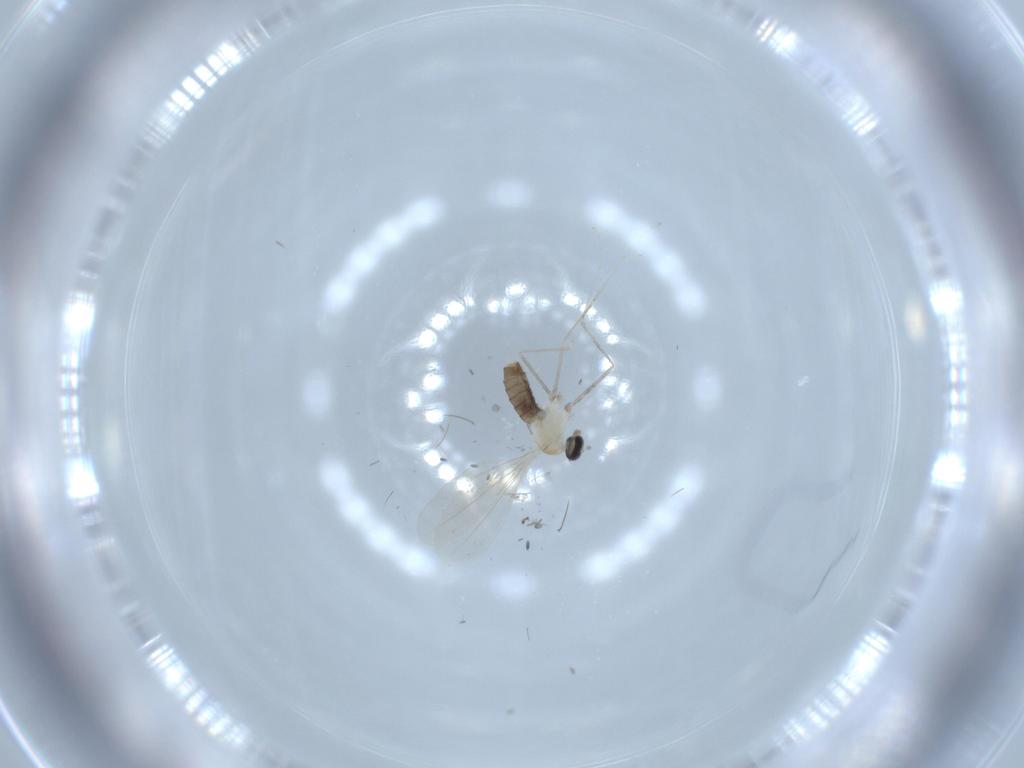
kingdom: Animalia
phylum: Arthropoda
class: Insecta
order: Diptera
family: Cecidomyiidae
